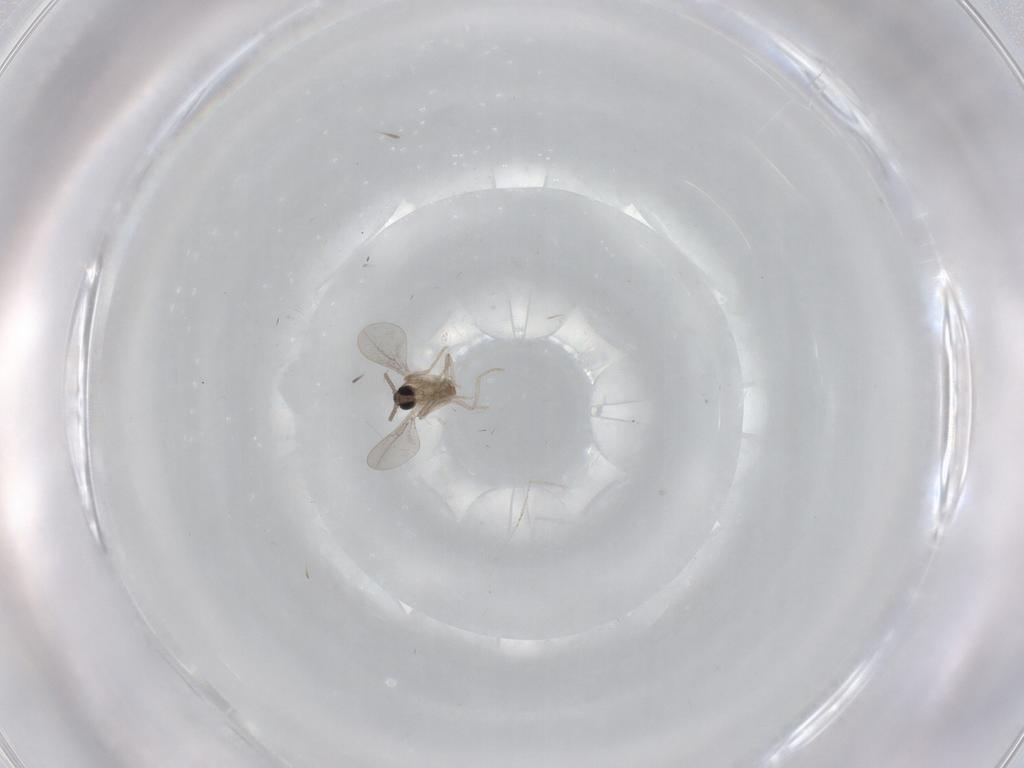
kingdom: Animalia
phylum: Arthropoda
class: Insecta
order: Diptera
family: Cecidomyiidae
